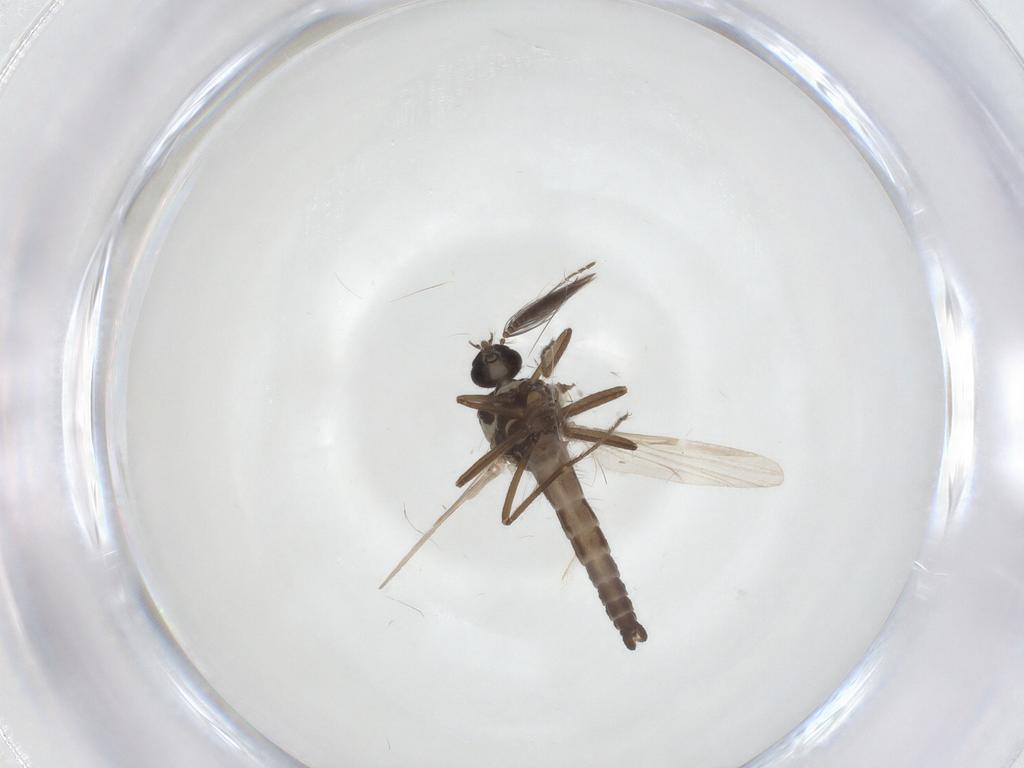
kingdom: Animalia
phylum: Arthropoda
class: Insecta
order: Diptera
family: Ceratopogonidae
